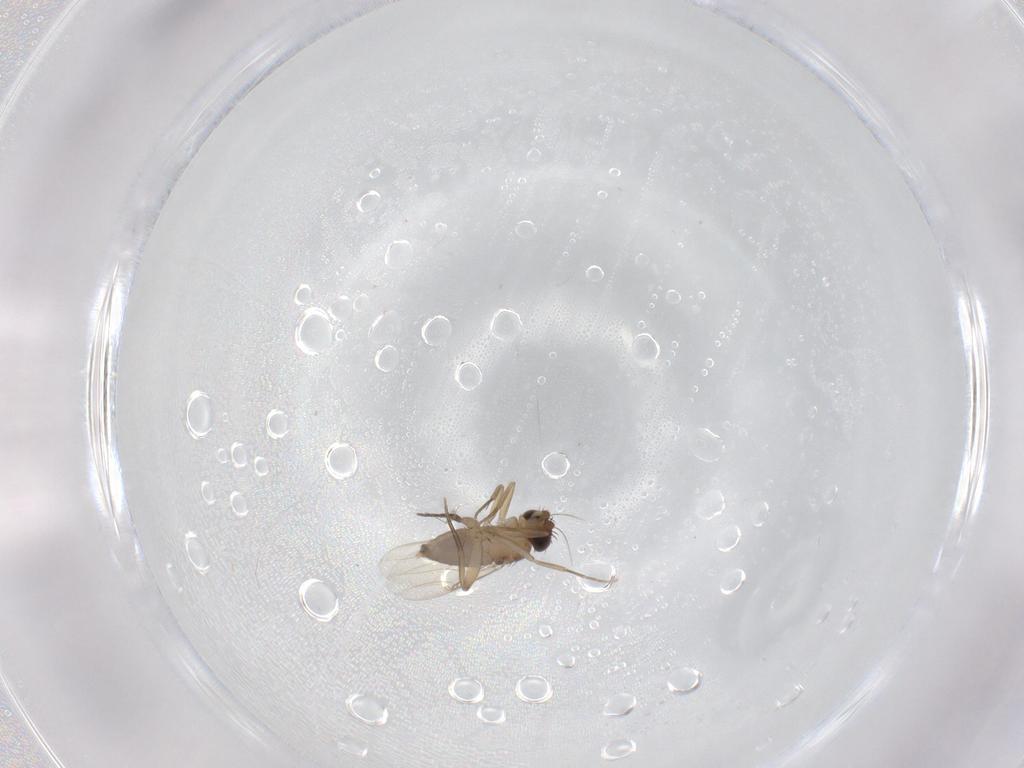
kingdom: Animalia
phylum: Arthropoda
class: Insecta
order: Diptera
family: Phoridae
